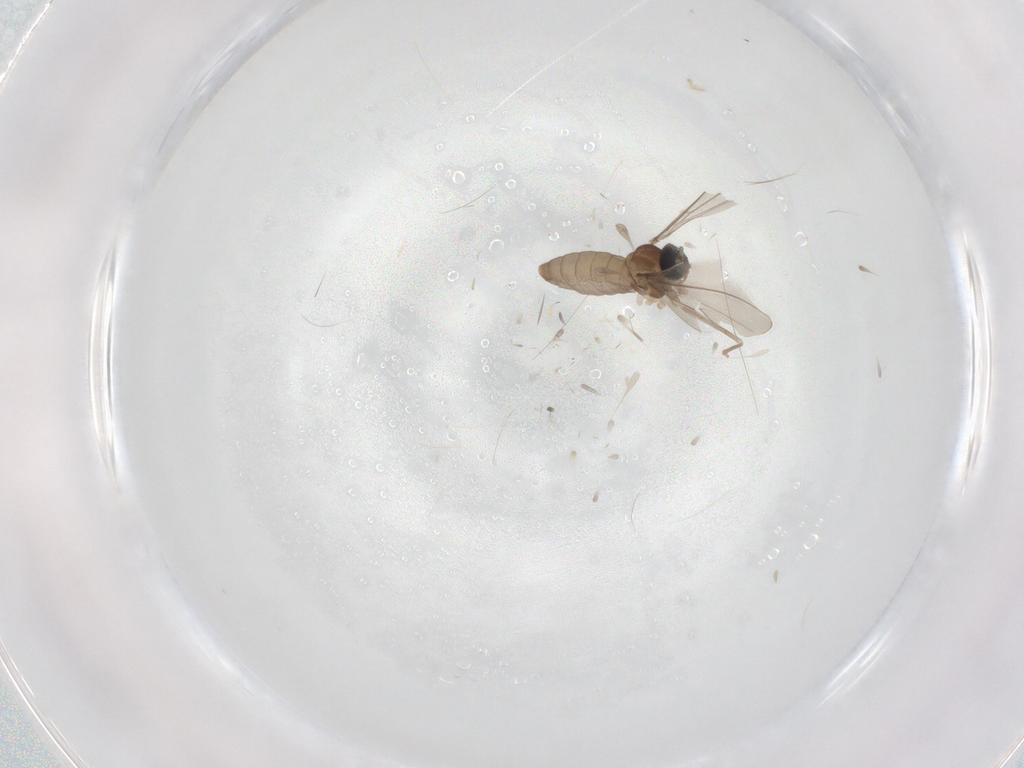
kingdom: Animalia
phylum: Arthropoda
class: Insecta
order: Diptera
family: Cecidomyiidae
